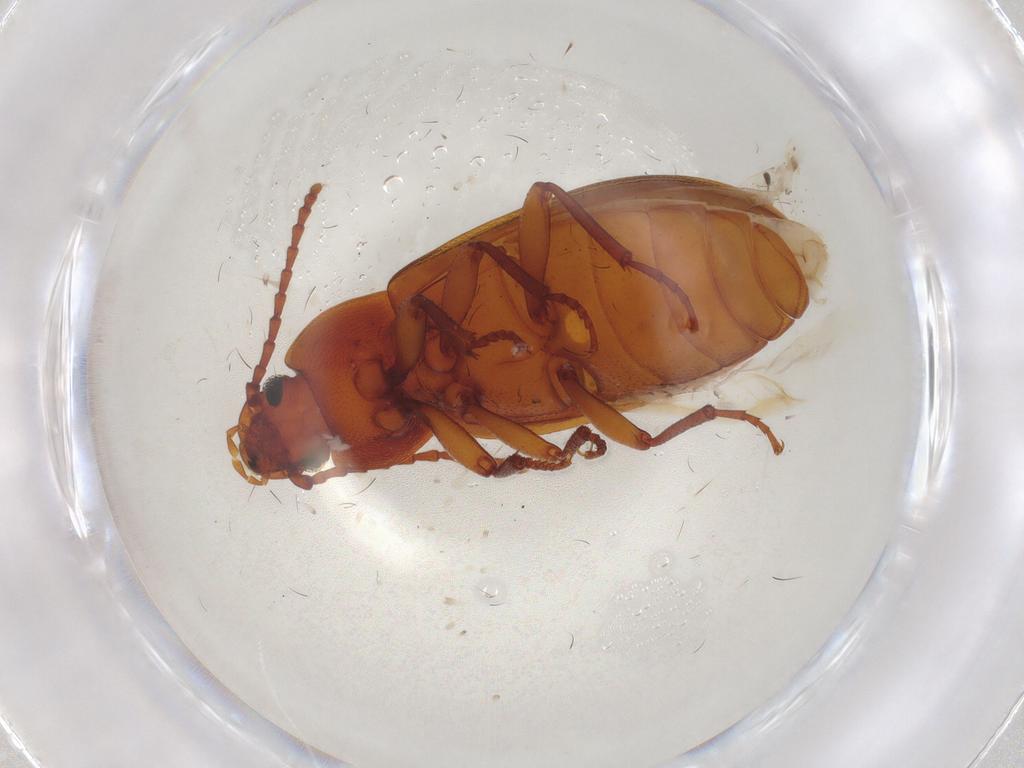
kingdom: Animalia
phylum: Arthropoda
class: Insecta
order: Coleoptera
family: Tenebrionidae
